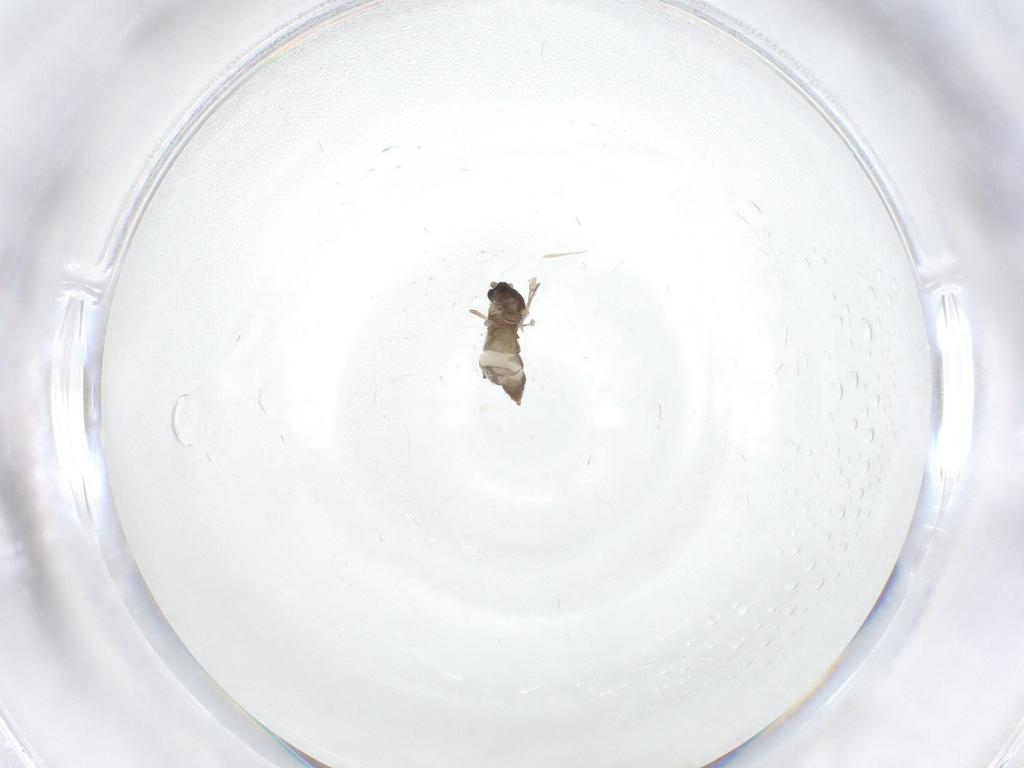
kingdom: Animalia
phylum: Arthropoda
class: Insecta
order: Diptera
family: Cecidomyiidae
